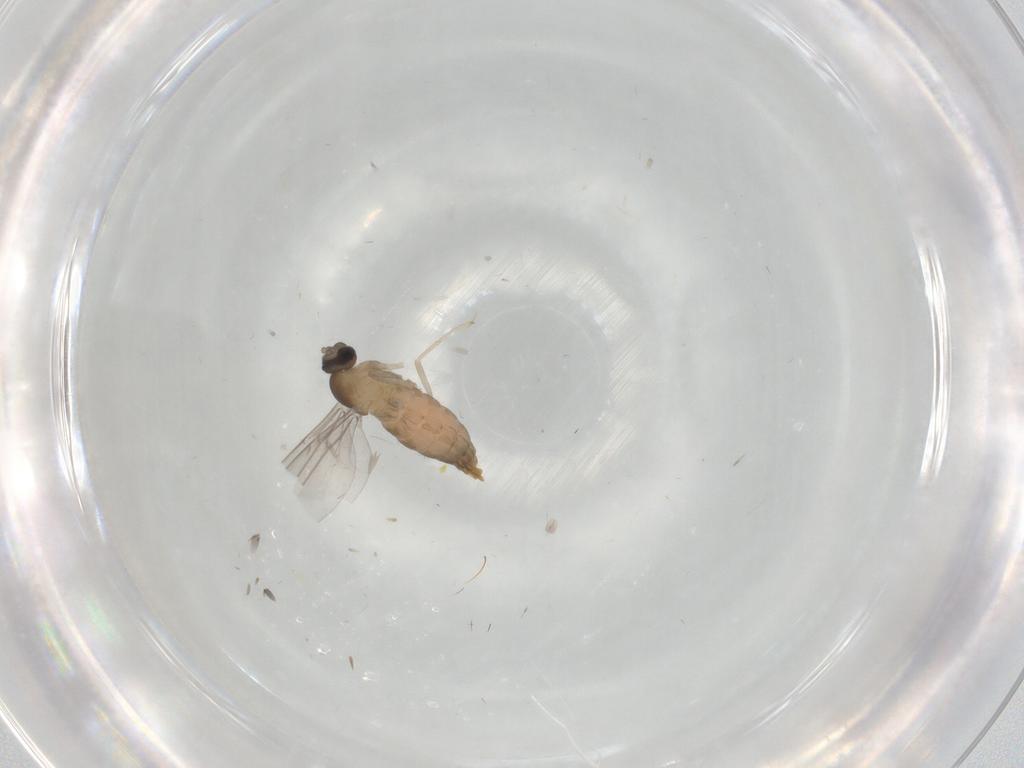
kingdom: Animalia
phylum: Arthropoda
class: Insecta
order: Diptera
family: Cecidomyiidae
